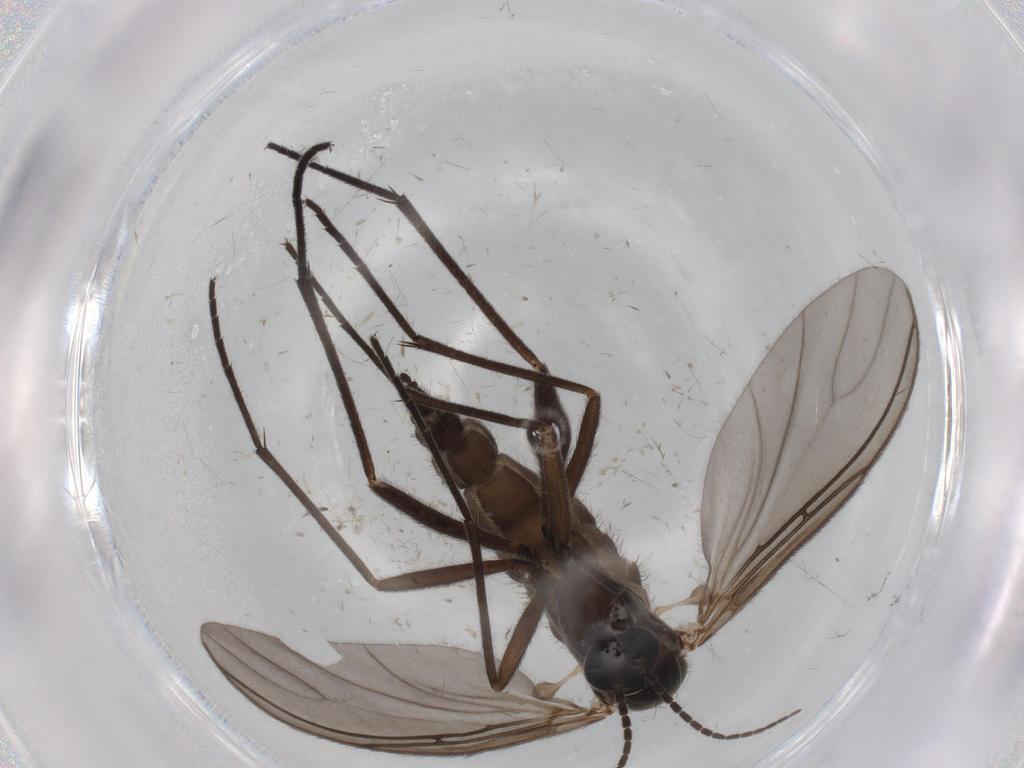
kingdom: Animalia
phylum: Arthropoda
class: Insecta
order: Diptera
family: Sciaridae
